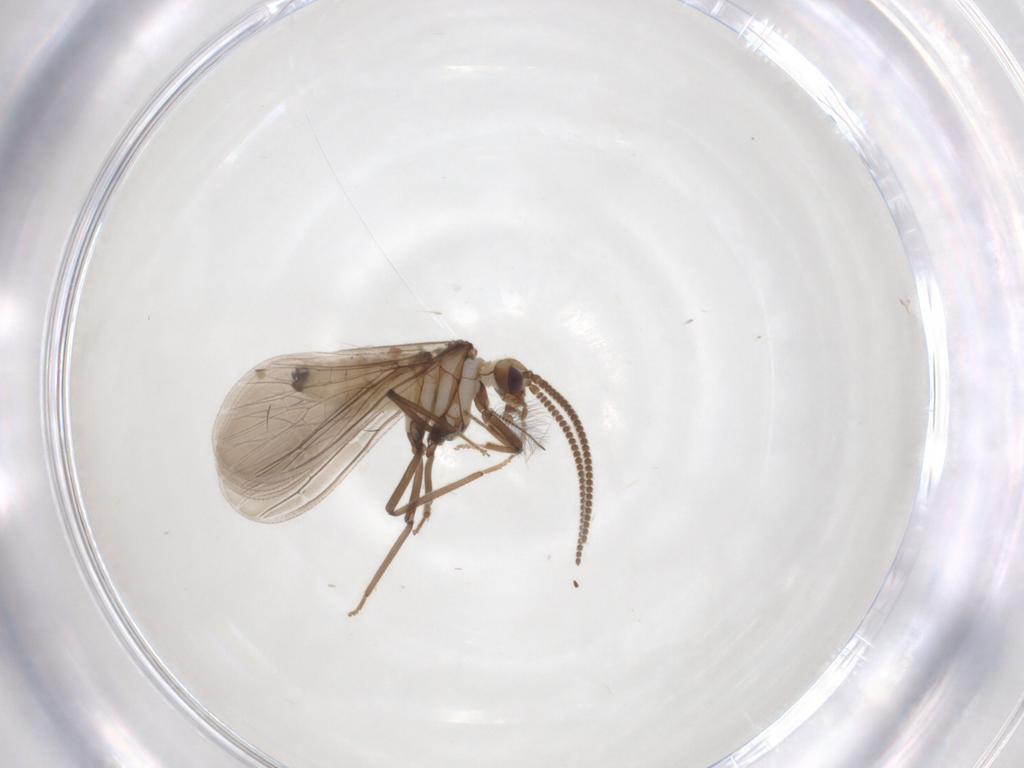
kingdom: Animalia
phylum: Arthropoda
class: Insecta
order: Neuroptera
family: Coniopterygidae
